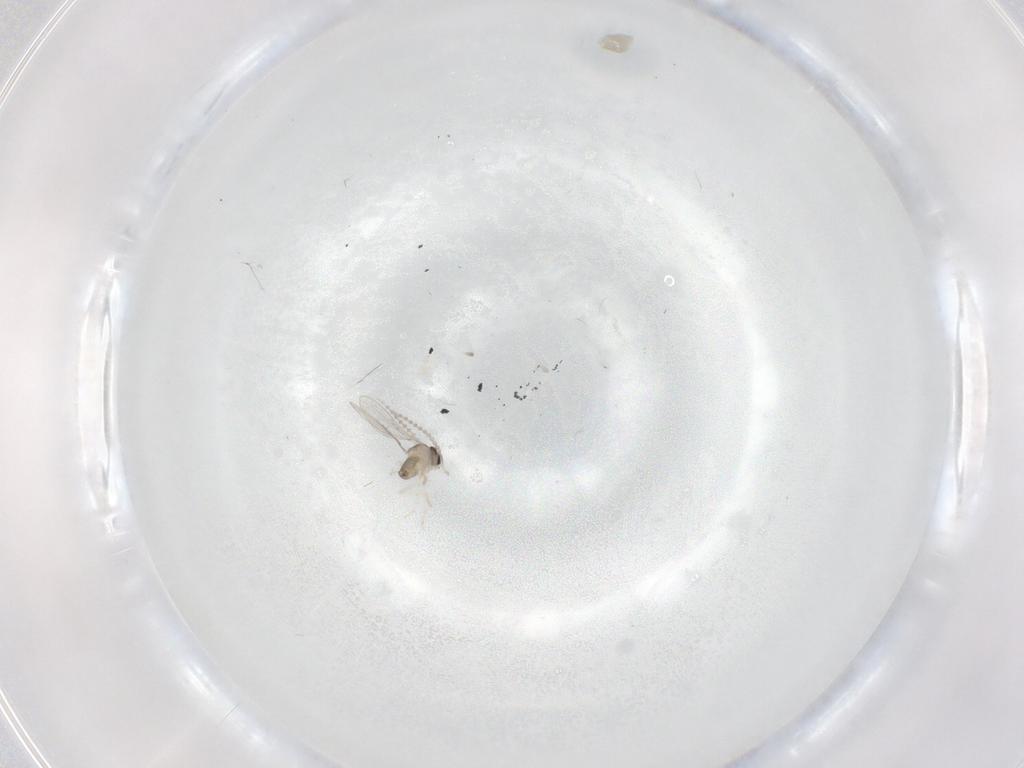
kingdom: Animalia
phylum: Arthropoda
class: Insecta
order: Diptera
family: Cecidomyiidae
